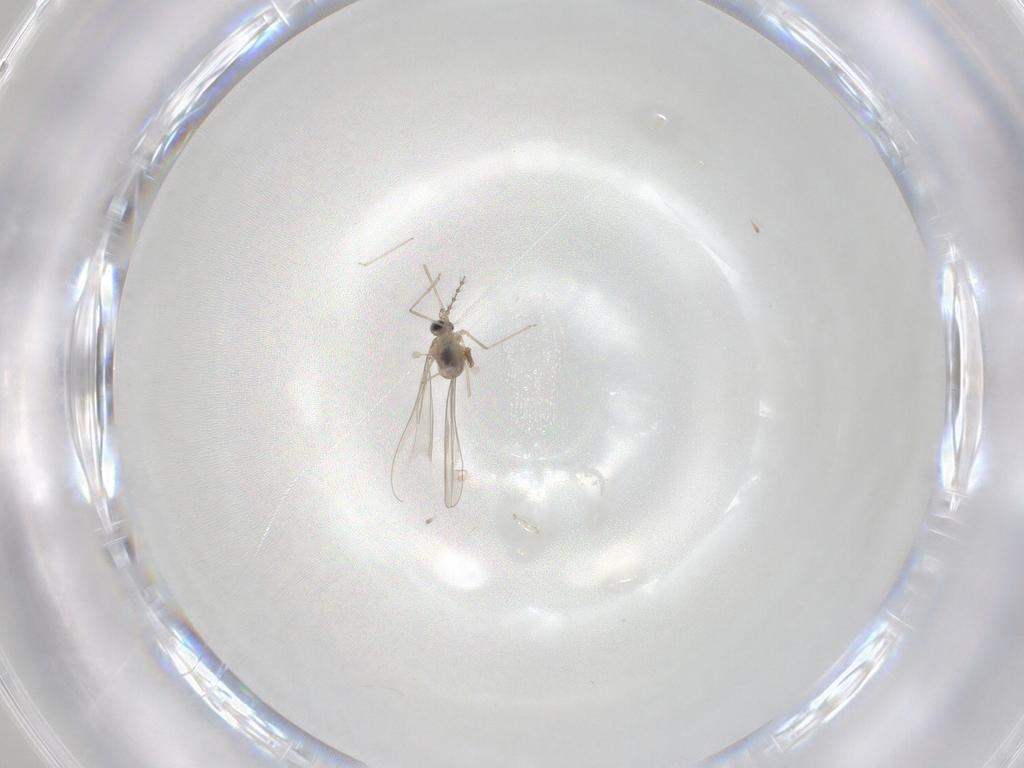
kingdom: Animalia
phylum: Arthropoda
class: Insecta
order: Diptera
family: Cecidomyiidae
